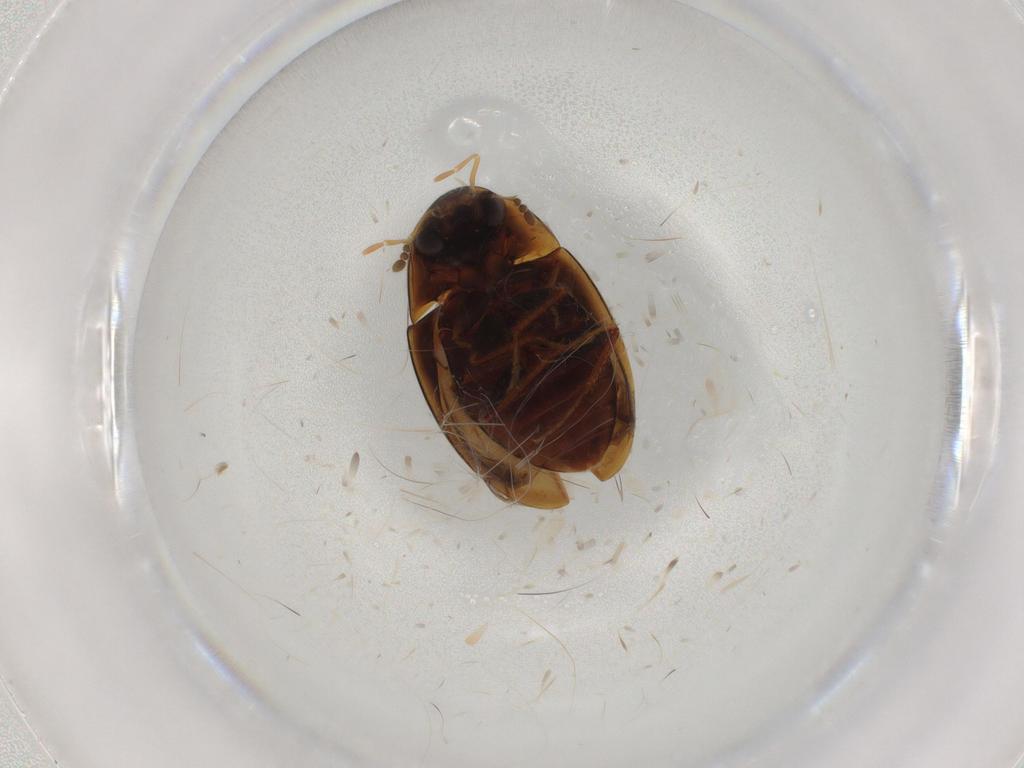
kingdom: Animalia
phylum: Arthropoda
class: Insecta
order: Coleoptera
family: Hydrophilidae
